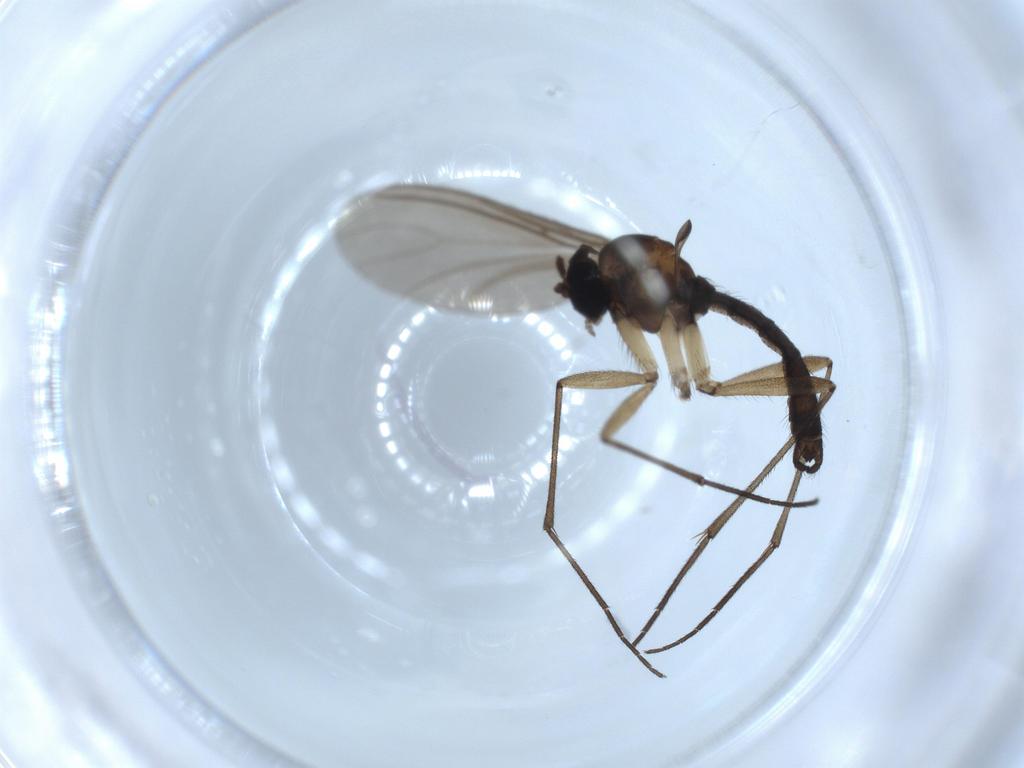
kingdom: Animalia
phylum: Arthropoda
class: Insecta
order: Diptera
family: Sciaridae
